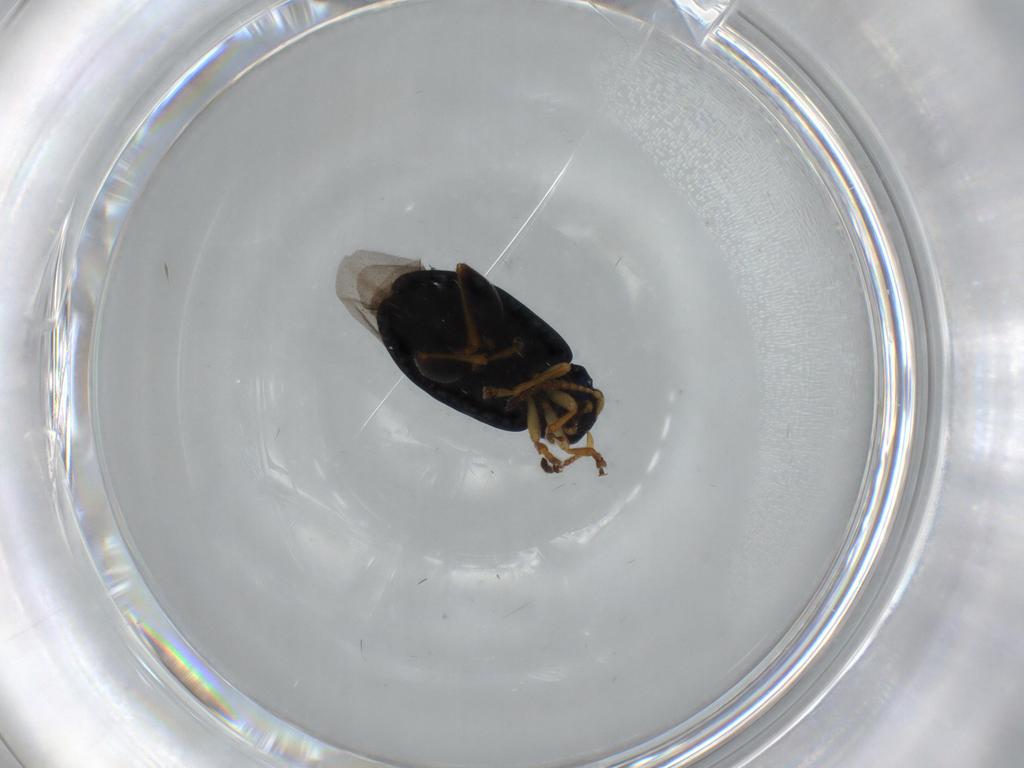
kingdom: Animalia
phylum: Arthropoda
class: Insecta
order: Coleoptera
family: Chrysomelidae
